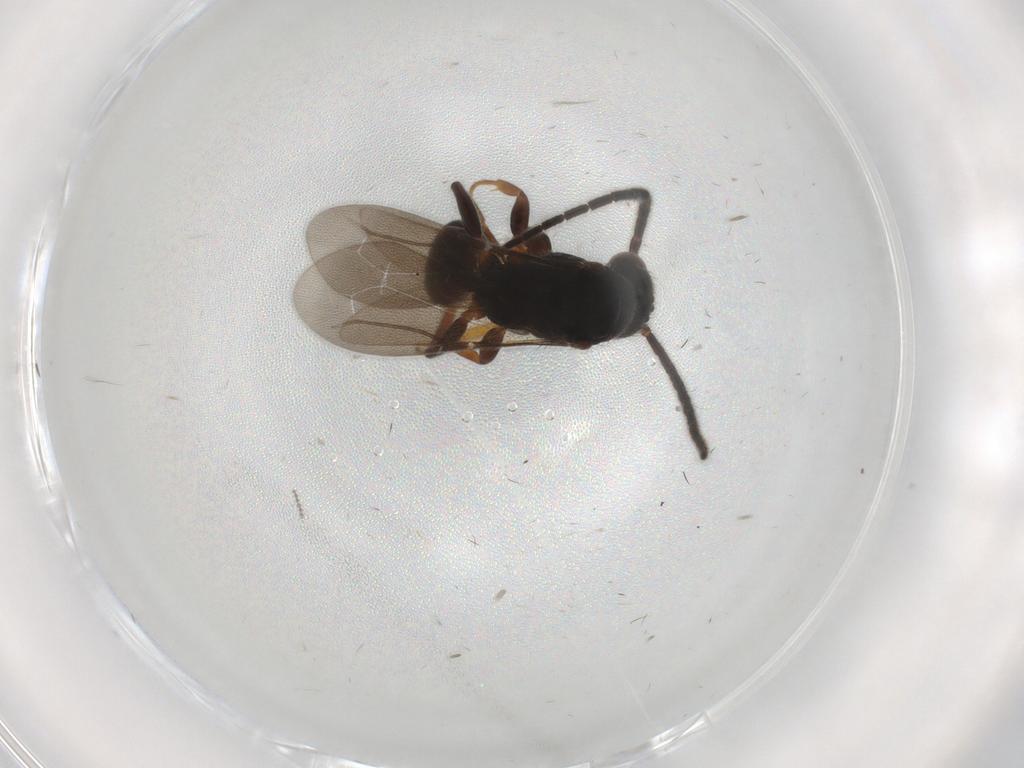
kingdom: Animalia
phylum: Arthropoda
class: Insecta
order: Hymenoptera
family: Bethylidae
